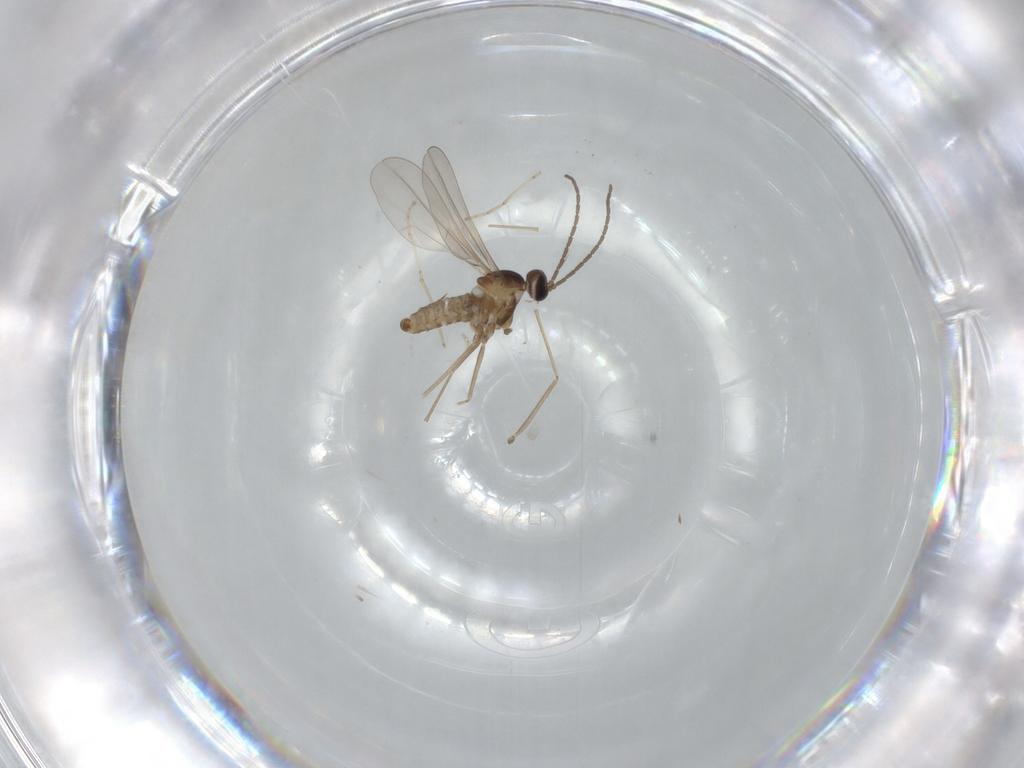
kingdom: Animalia
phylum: Arthropoda
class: Insecta
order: Diptera
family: Cecidomyiidae
